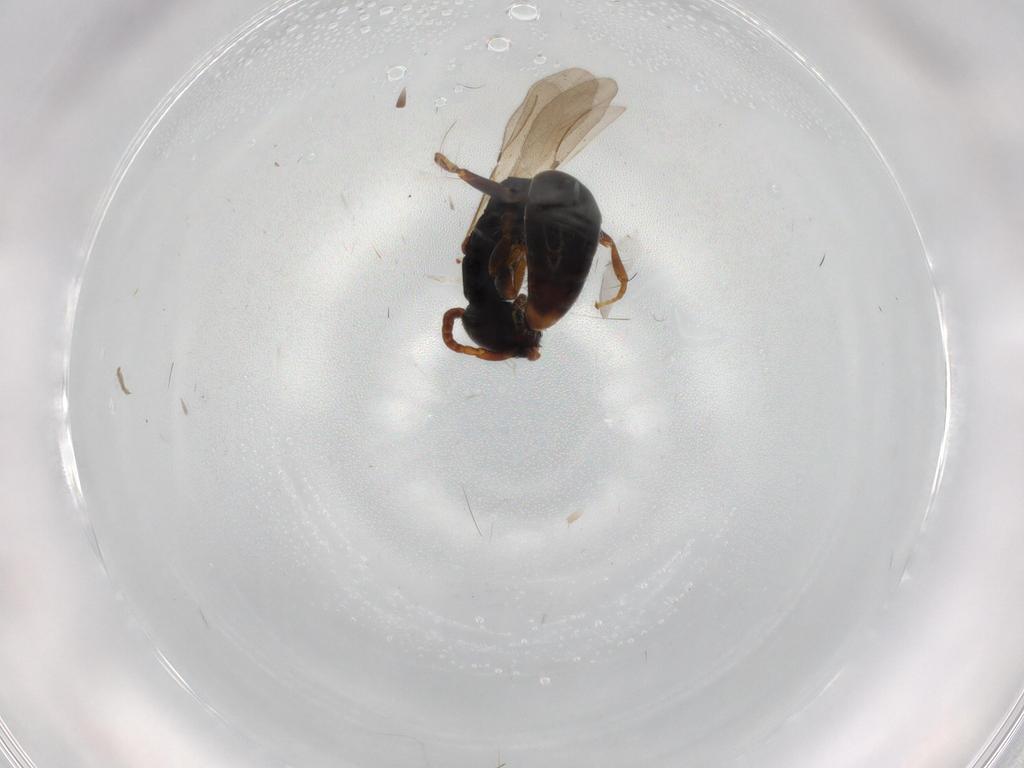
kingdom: Animalia
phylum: Arthropoda
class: Insecta
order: Hymenoptera
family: Bethylidae
